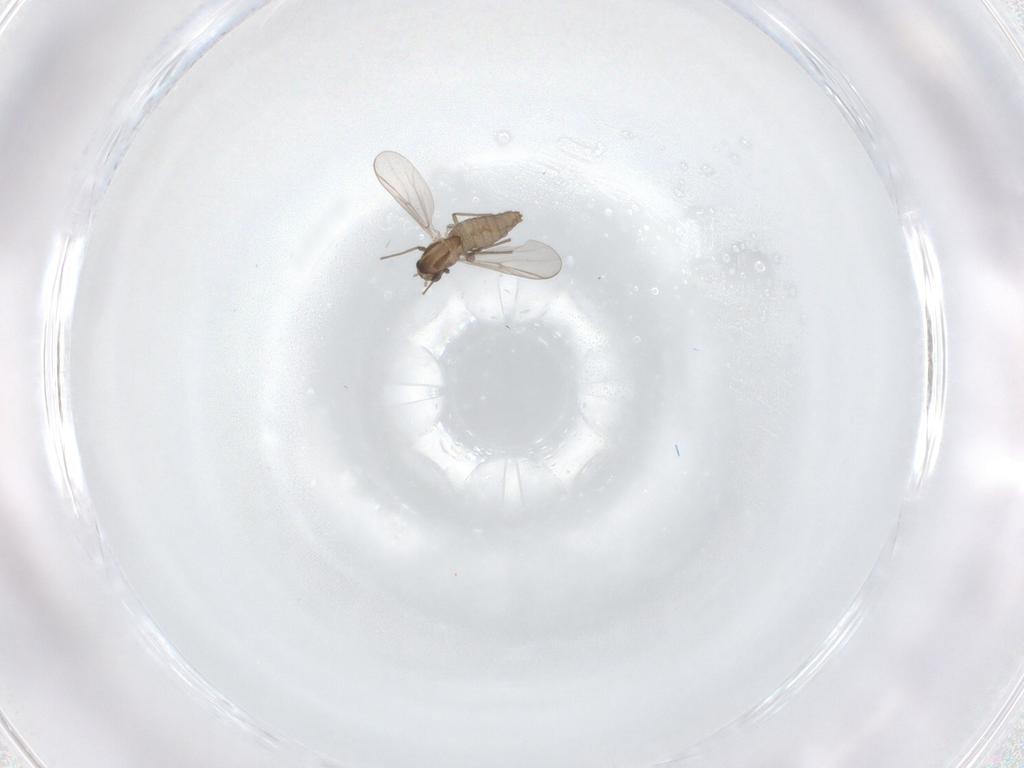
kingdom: Animalia
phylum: Arthropoda
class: Insecta
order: Diptera
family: Chironomidae
